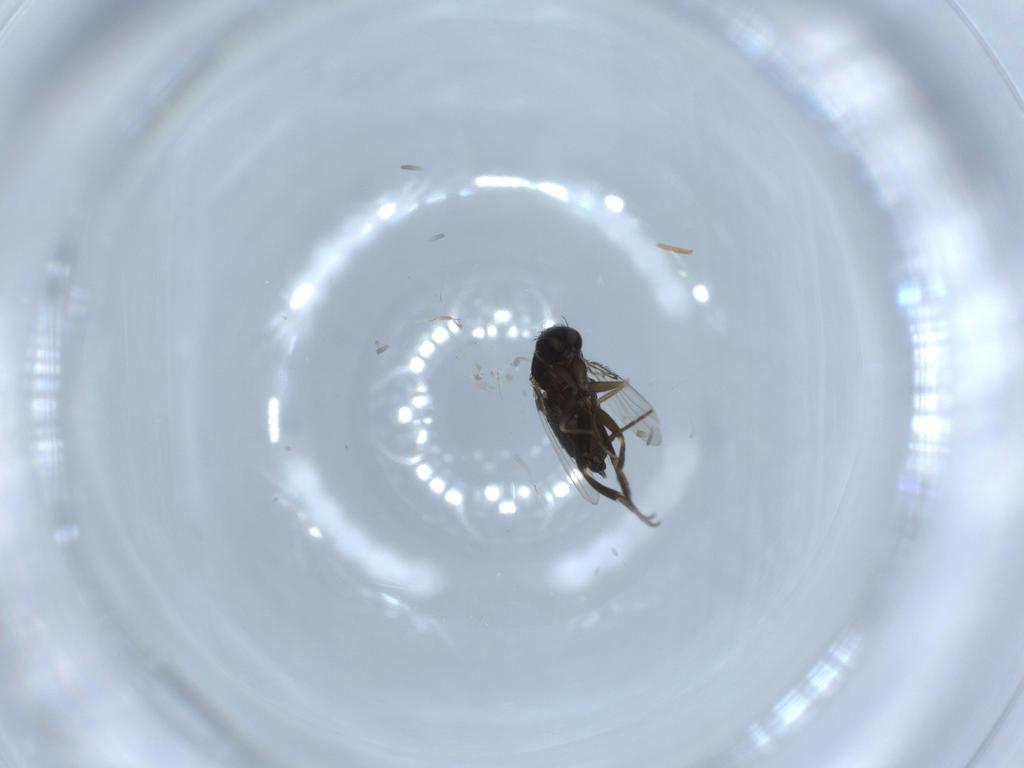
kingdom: Animalia
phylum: Arthropoda
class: Insecta
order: Diptera
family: Phoridae
